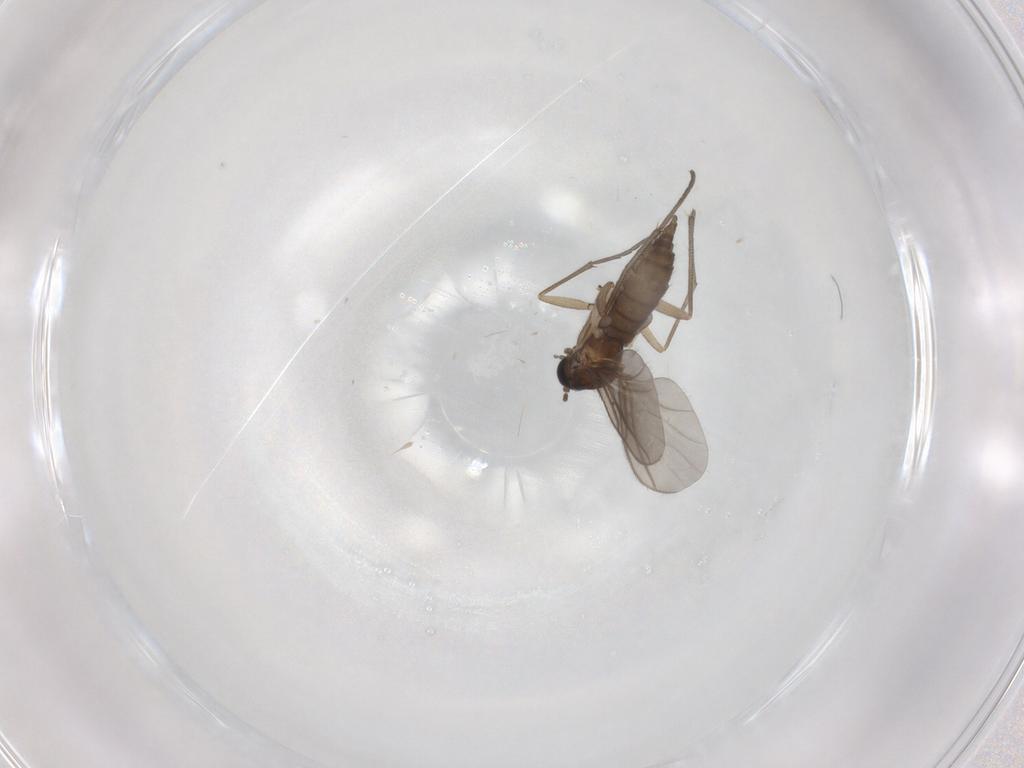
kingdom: Animalia
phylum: Arthropoda
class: Insecta
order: Diptera
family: Sciaridae
